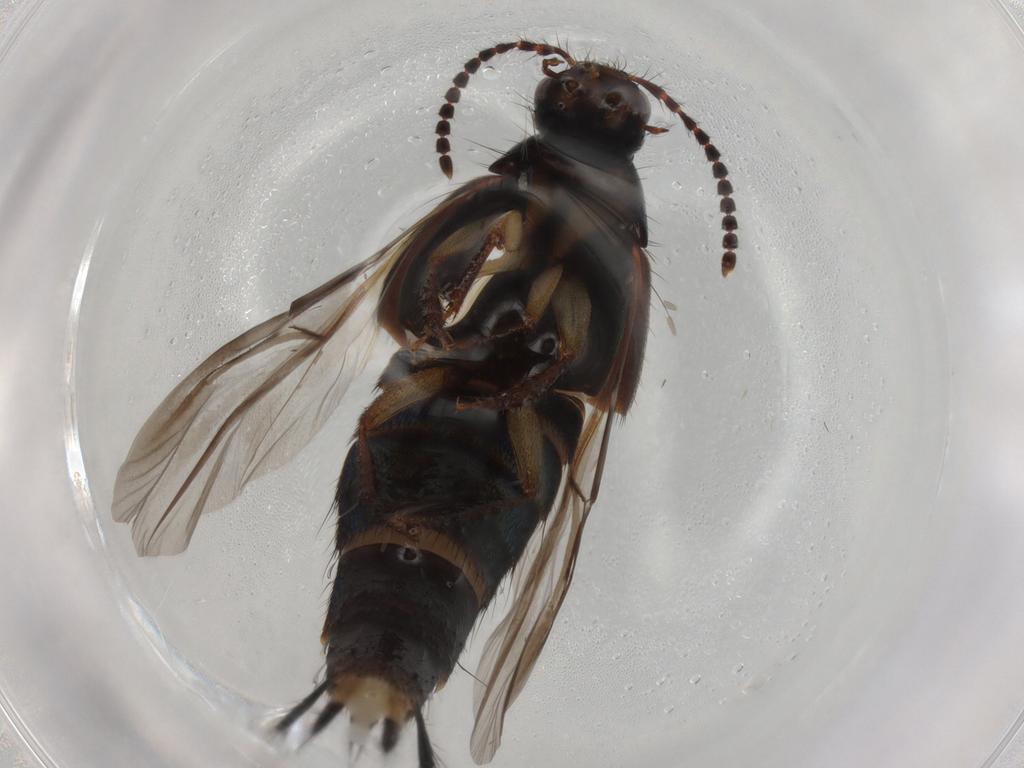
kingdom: Animalia
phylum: Arthropoda
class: Insecta
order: Coleoptera
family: Staphylinidae
